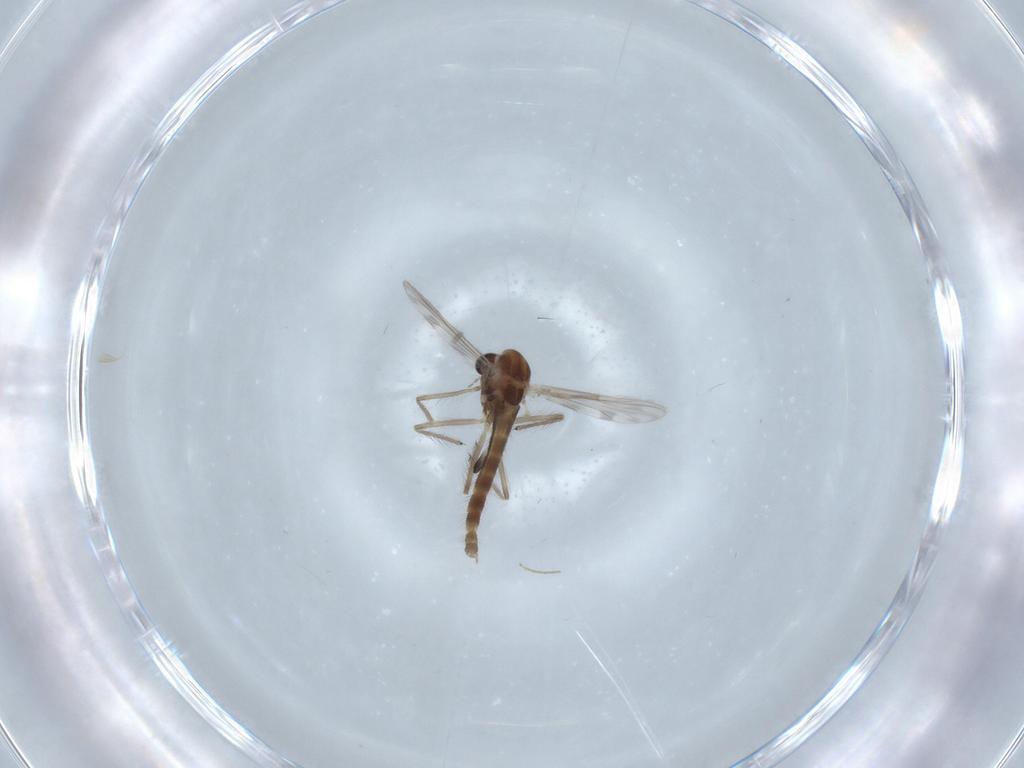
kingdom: Animalia
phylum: Arthropoda
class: Insecta
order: Diptera
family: Chironomidae
